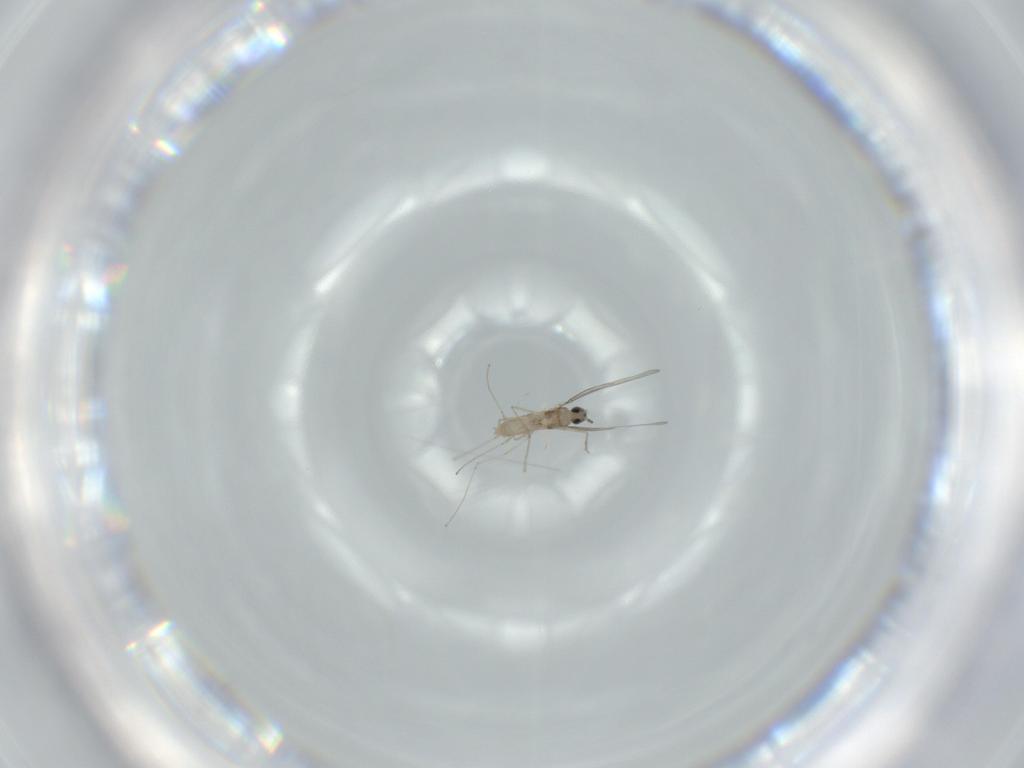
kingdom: Animalia
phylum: Arthropoda
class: Insecta
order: Diptera
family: Cecidomyiidae
